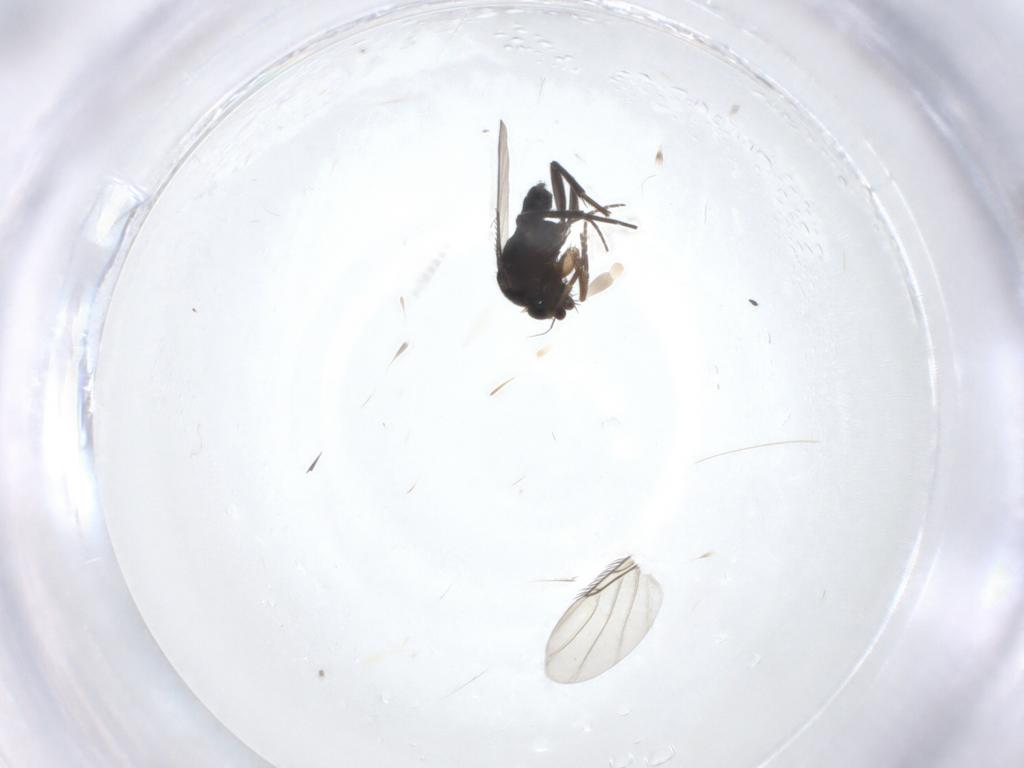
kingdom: Animalia
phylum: Arthropoda
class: Insecta
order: Diptera
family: Phoridae
